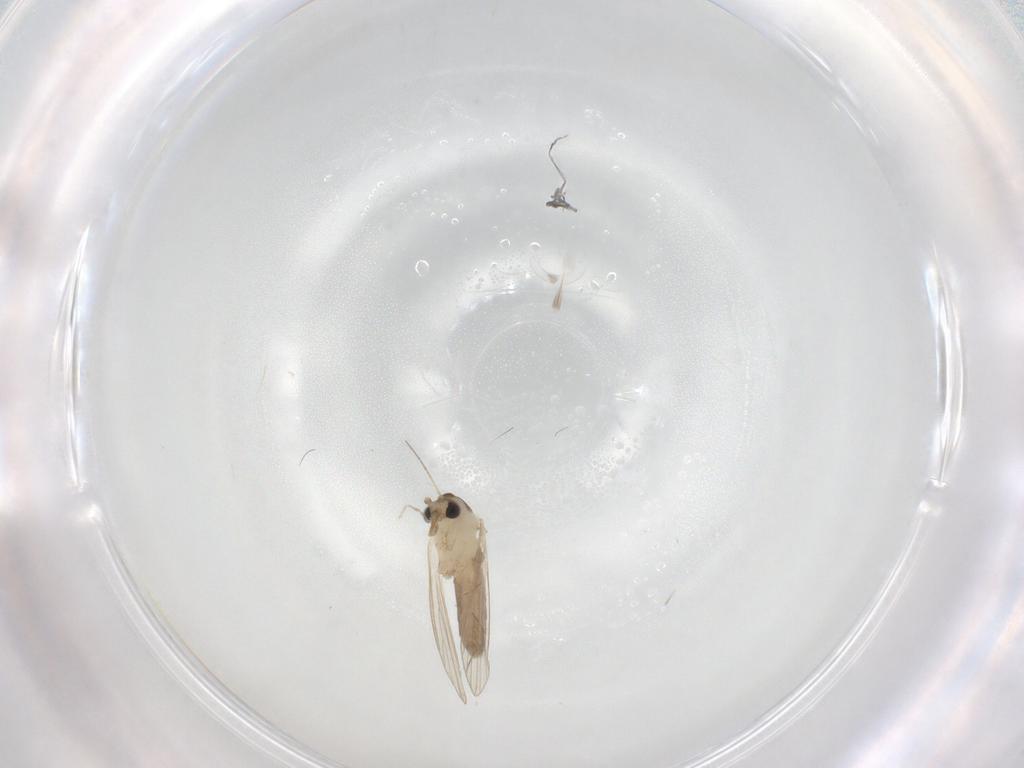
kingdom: Animalia
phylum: Arthropoda
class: Insecta
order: Diptera
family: Psychodidae
